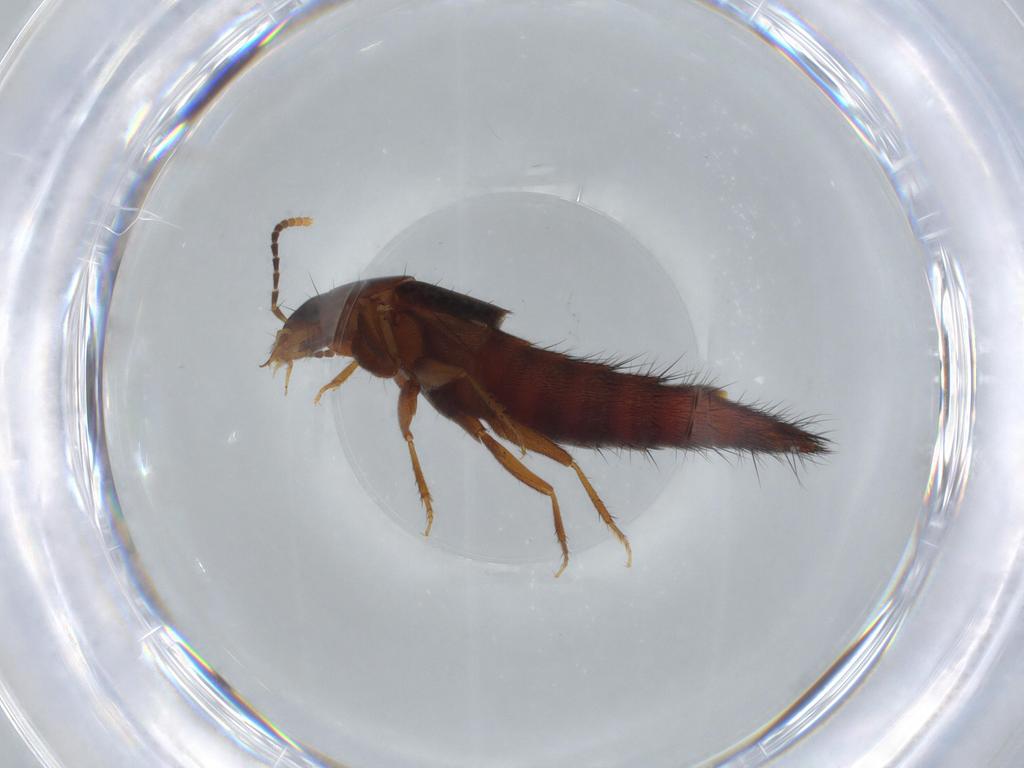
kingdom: Animalia
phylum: Arthropoda
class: Insecta
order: Coleoptera
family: Staphylinidae
